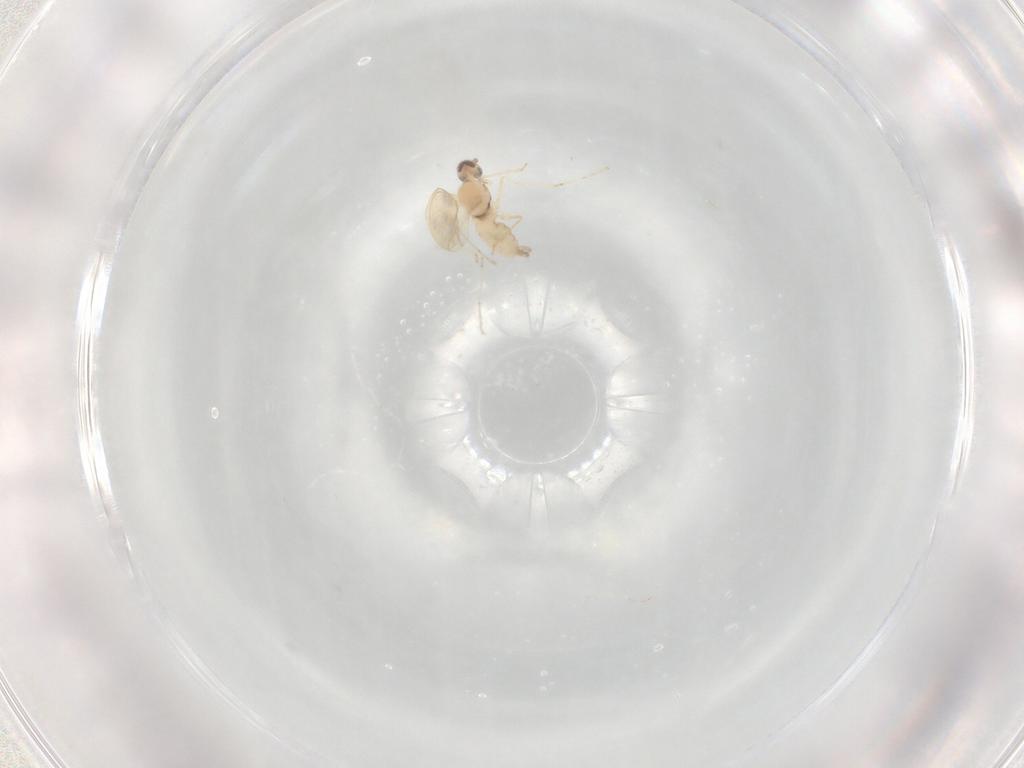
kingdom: Animalia
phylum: Arthropoda
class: Insecta
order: Diptera
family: Cecidomyiidae
